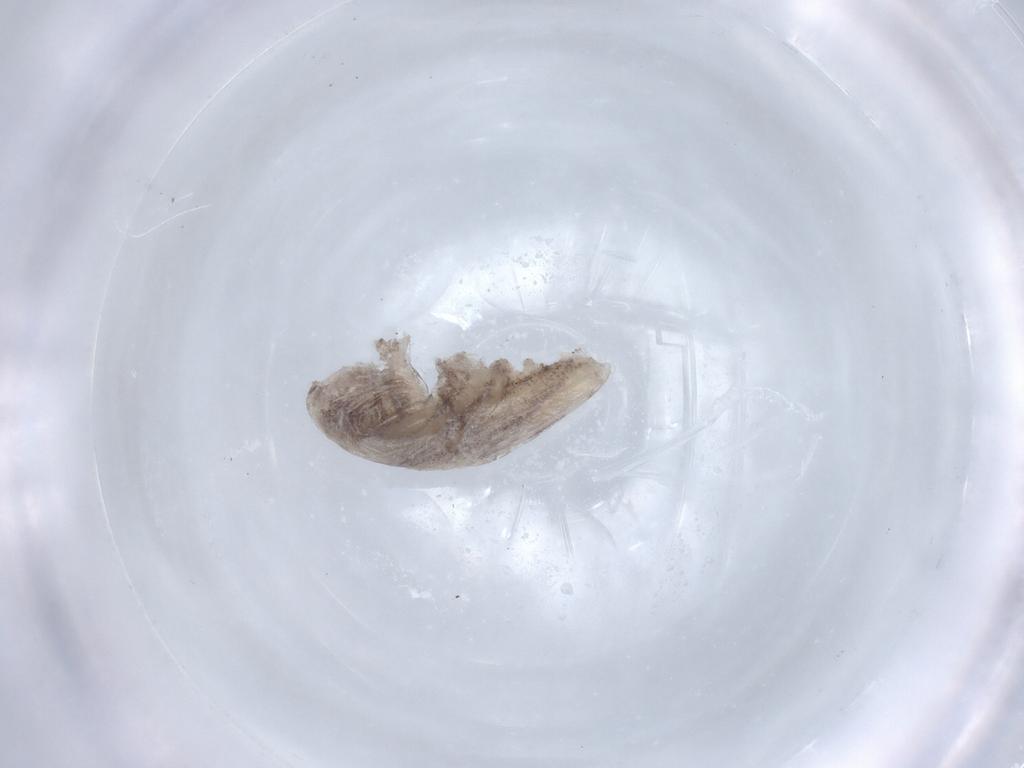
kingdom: Animalia
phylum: Arthropoda
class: Insecta
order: Diptera
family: Ceratopogonidae
